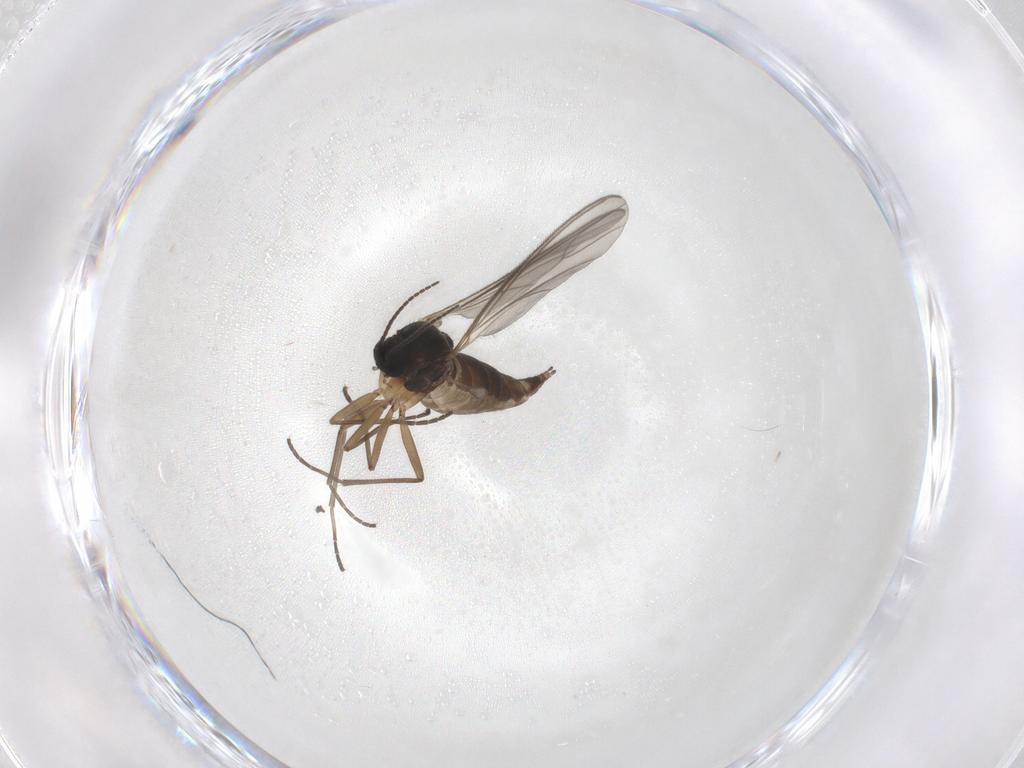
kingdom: Animalia
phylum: Arthropoda
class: Insecta
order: Diptera
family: Sciaridae
